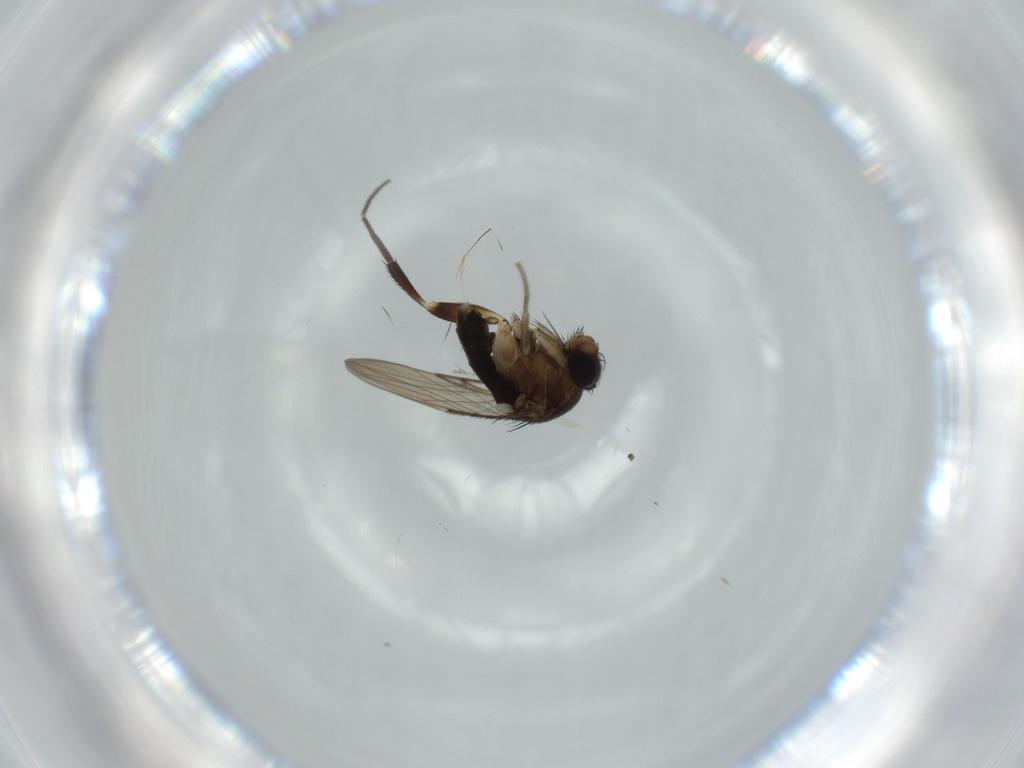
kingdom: Animalia
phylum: Arthropoda
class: Insecta
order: Diptera
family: Phoridae
